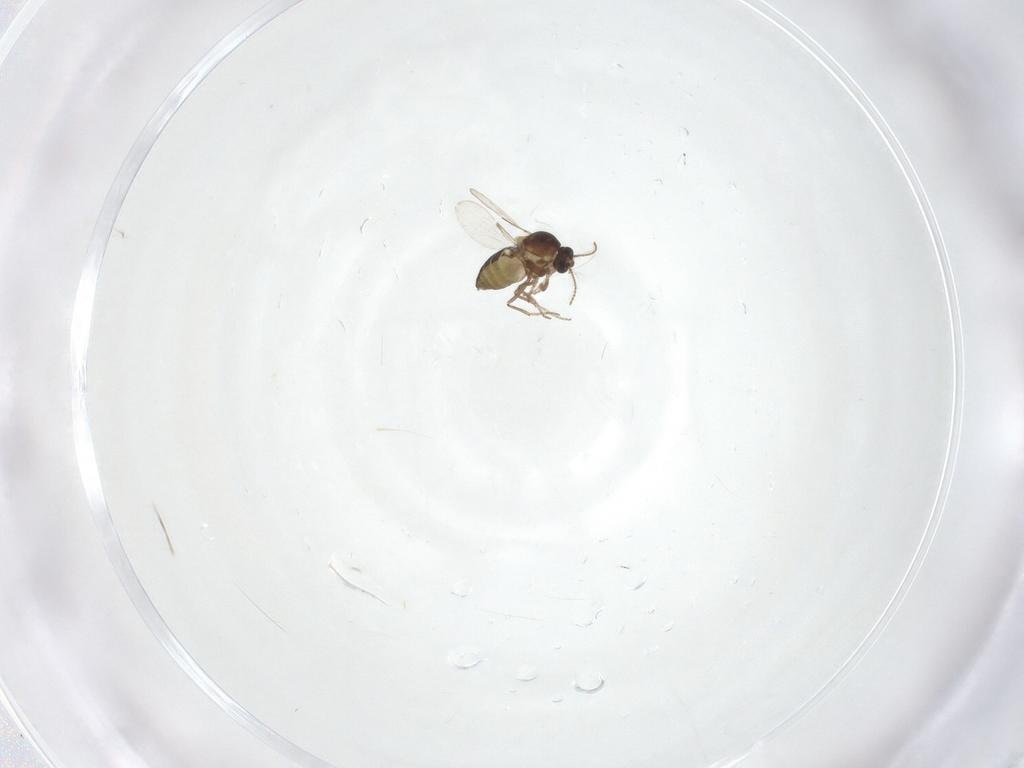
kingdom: Animalia
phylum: Arthropoda
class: Insecta
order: Diptera
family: Ceratopogonidae
